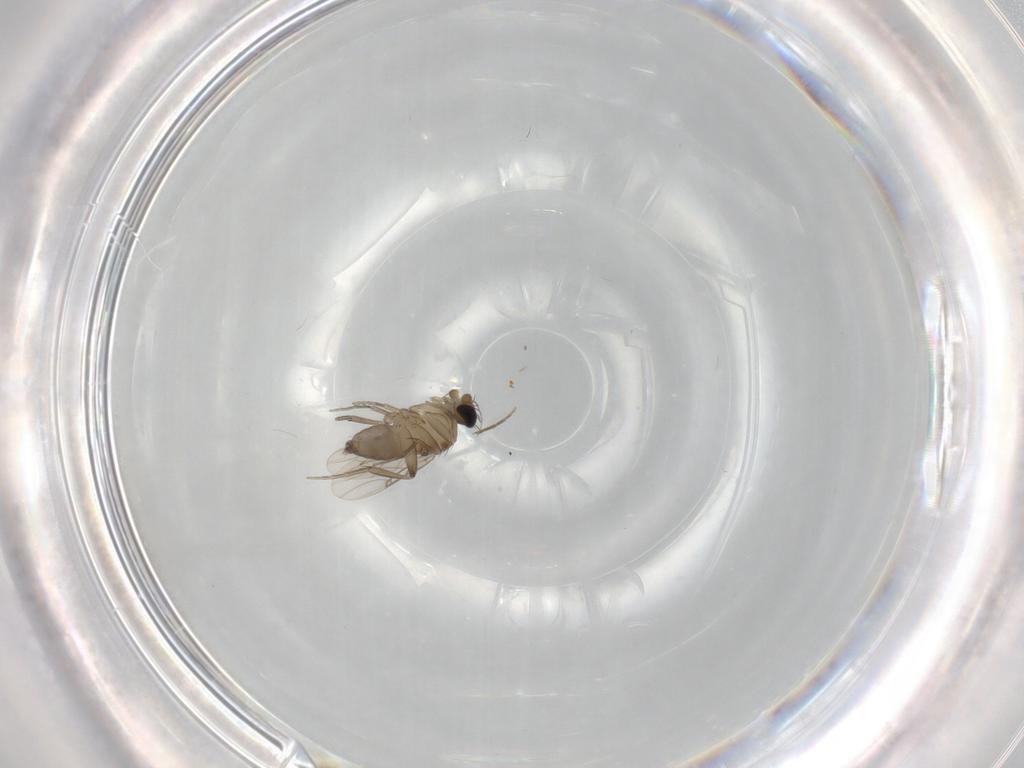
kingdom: Animalia
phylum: Arthropoda
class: Insecta
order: Diptera
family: Phoridae
